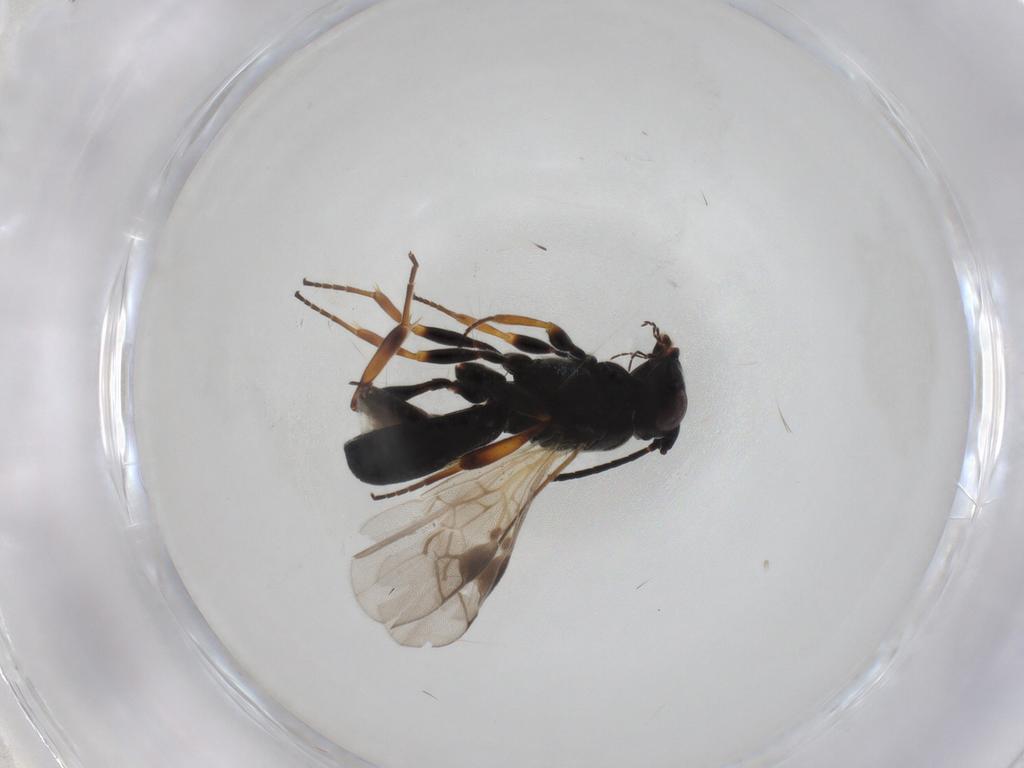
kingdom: Animalia
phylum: Arthropoda
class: Insecta
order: Hymenoptera
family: Braconidae
